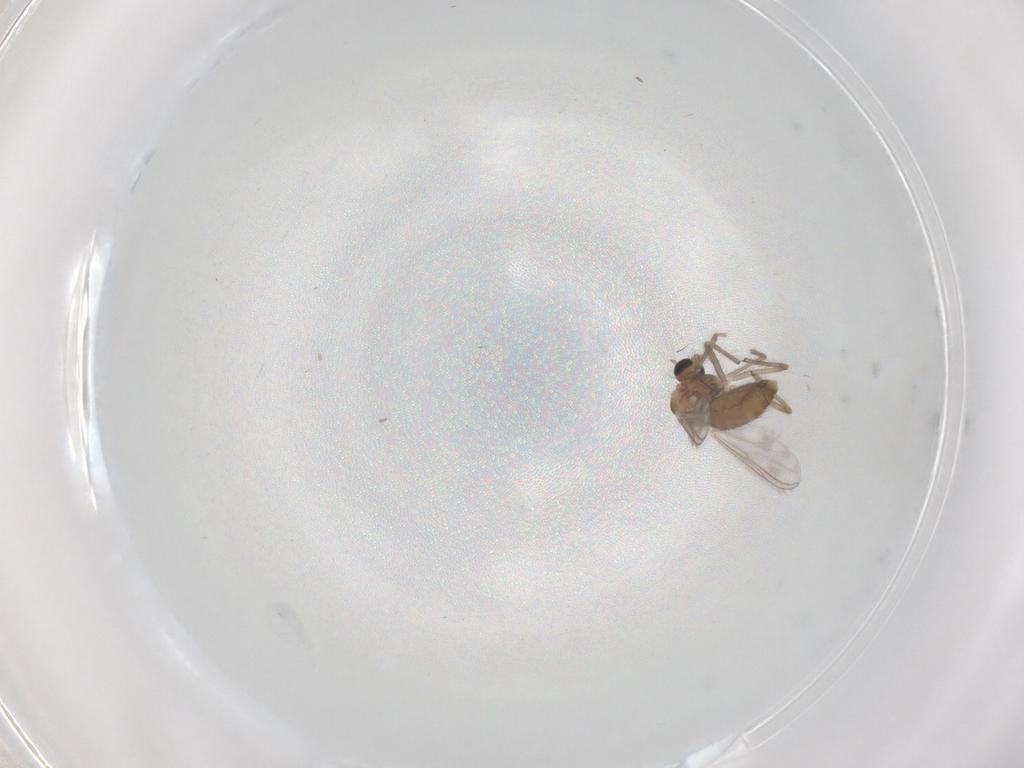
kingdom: Animalia
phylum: Arthropoda
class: Insecta
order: Diptera
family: Chironomidae
